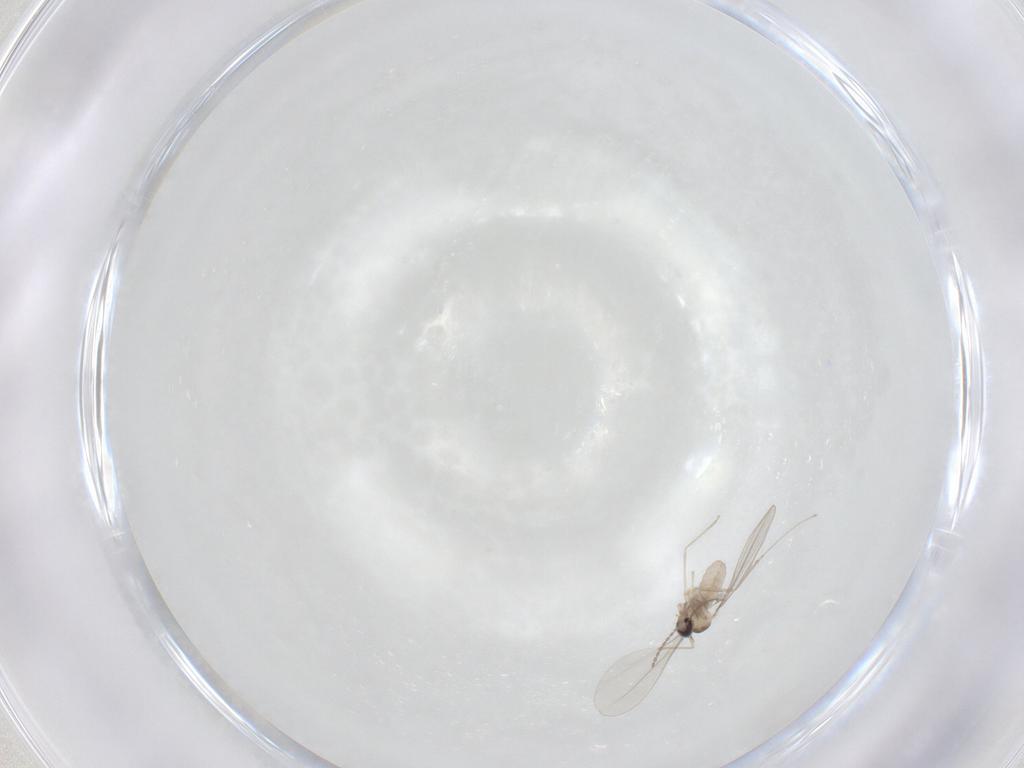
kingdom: Animalia
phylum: Arthropoda
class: Insecta
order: Diptera
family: Cecidomyiidae
